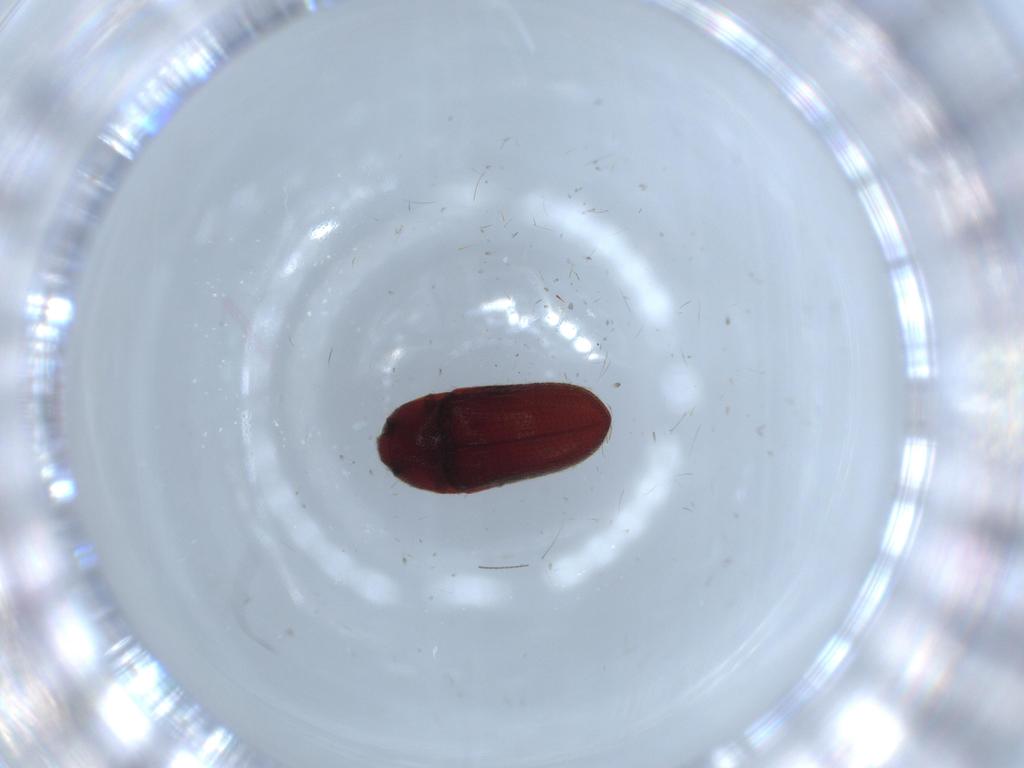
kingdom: Animalia
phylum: Arthropoda
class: Insecta
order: Coleoptera
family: Throscidae
